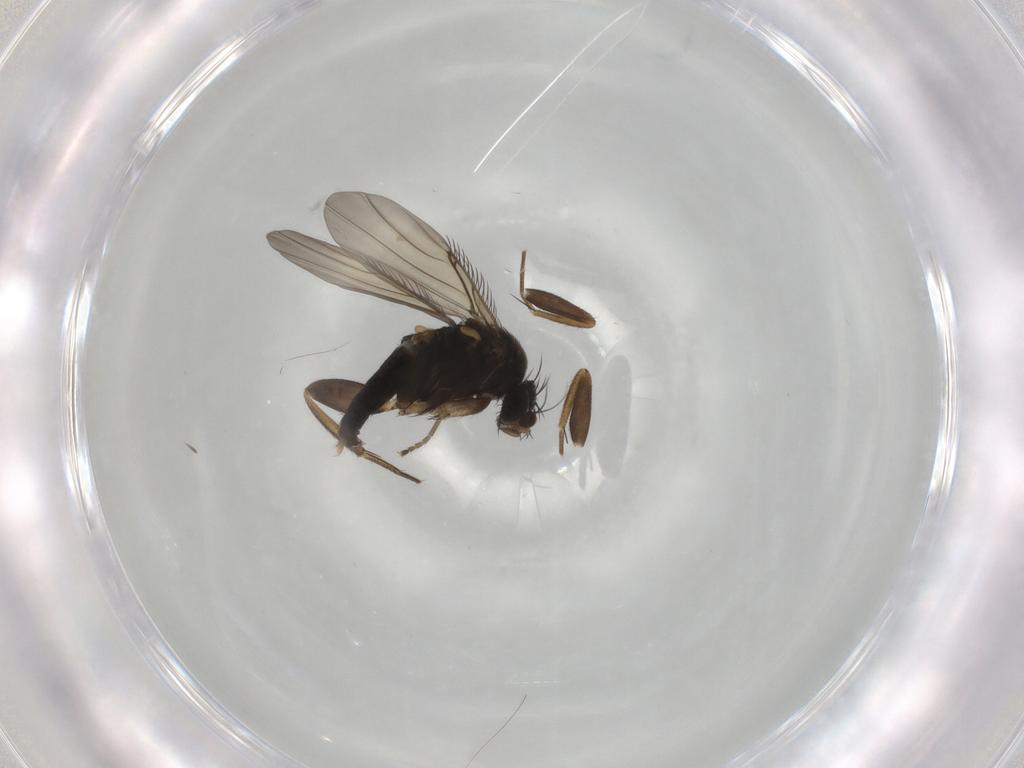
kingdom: Animalia
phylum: Arthropoda
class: Insecta
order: Diptera
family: Phoridae
